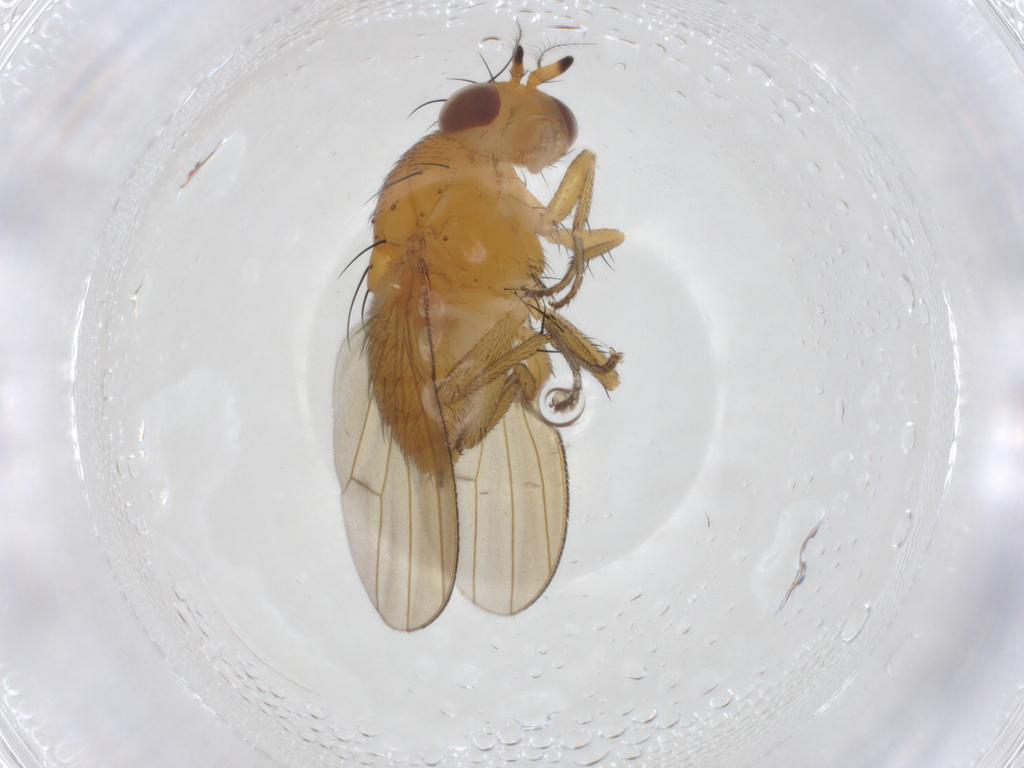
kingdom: Animalia
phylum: Arthropoda
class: Insecta
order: Diptera
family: Lauxaniidae
